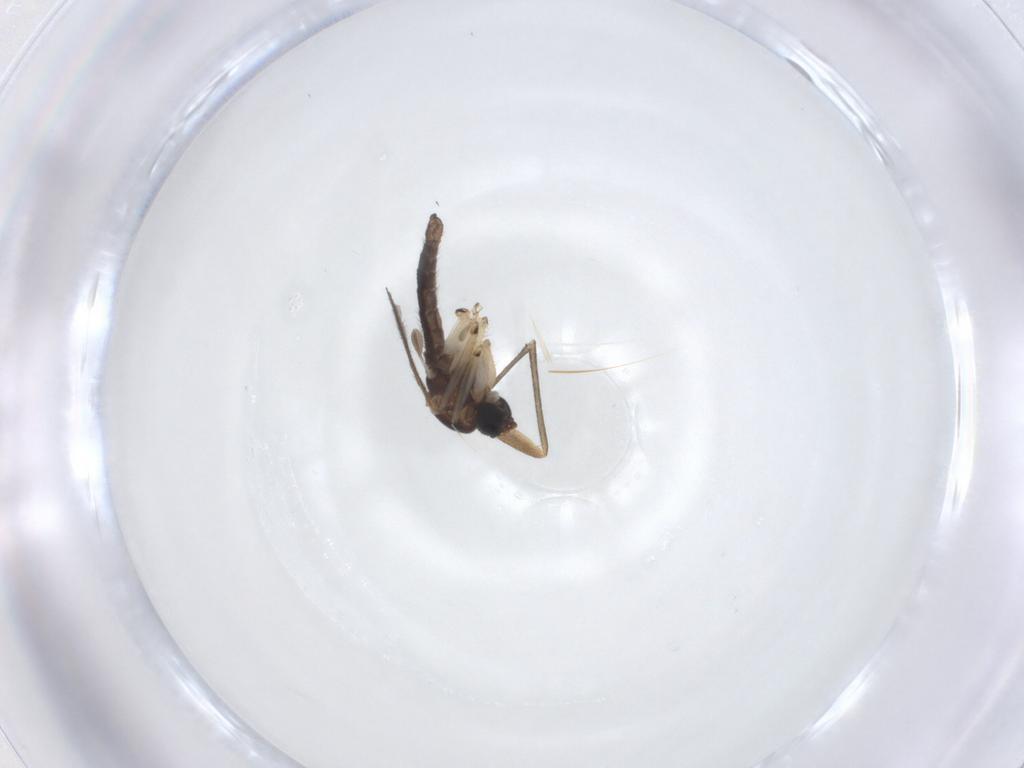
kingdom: Animalia
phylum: Arthropoda
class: Insecta
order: Diptera
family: Sciaridae
